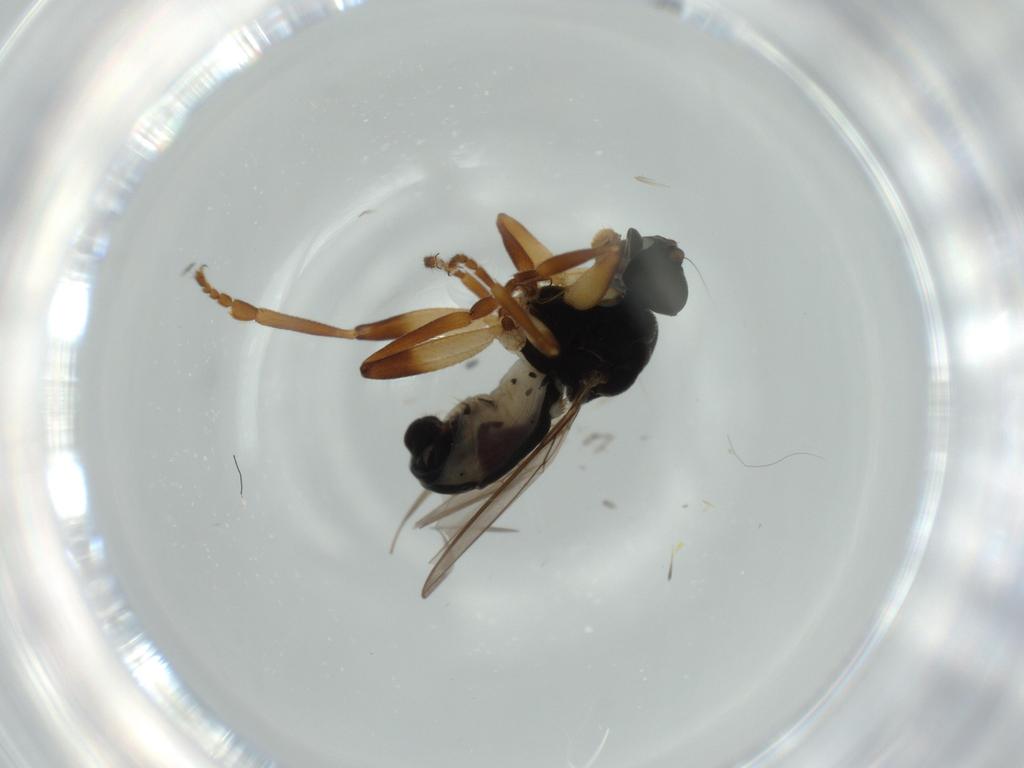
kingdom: Animalia
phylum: Arthropoda
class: Insecta
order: Diptera
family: Sphaeroceridae
